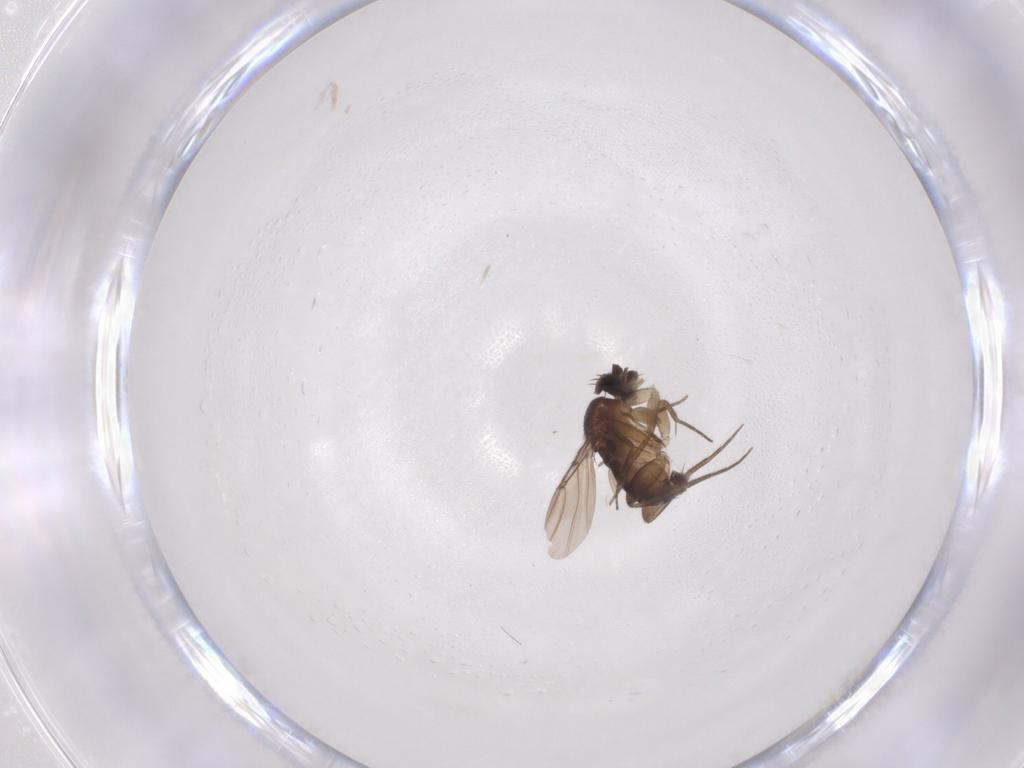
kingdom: Animalia
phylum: Arthropoda
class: Insecta
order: Diptera
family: Phoridae
